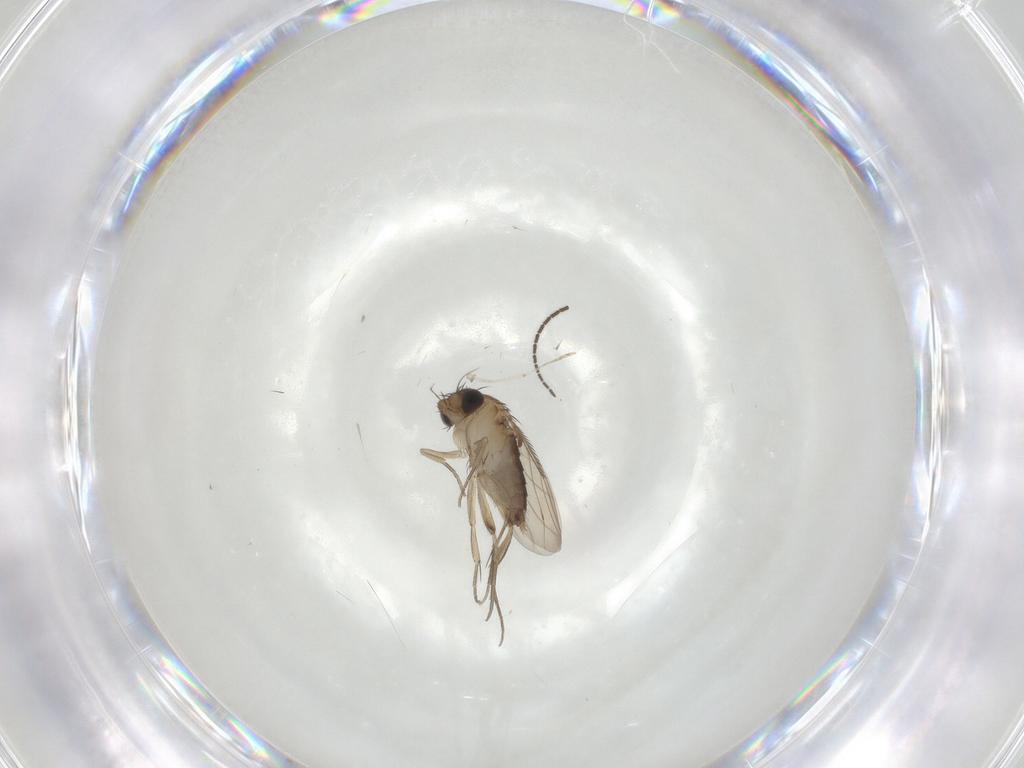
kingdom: Animalia
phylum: Arthropoda
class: Insecta
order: Diptera
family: Phoridae
